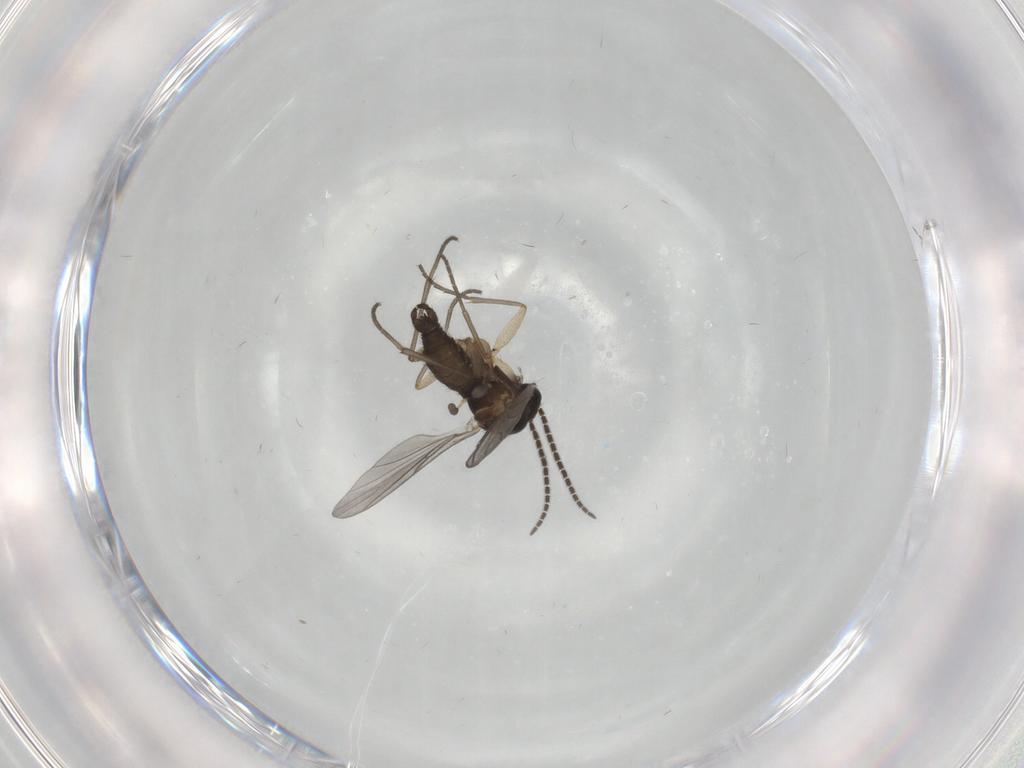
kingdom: Animalia
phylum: Arthropoda
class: Insecta
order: Diptera
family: Sciaridae
